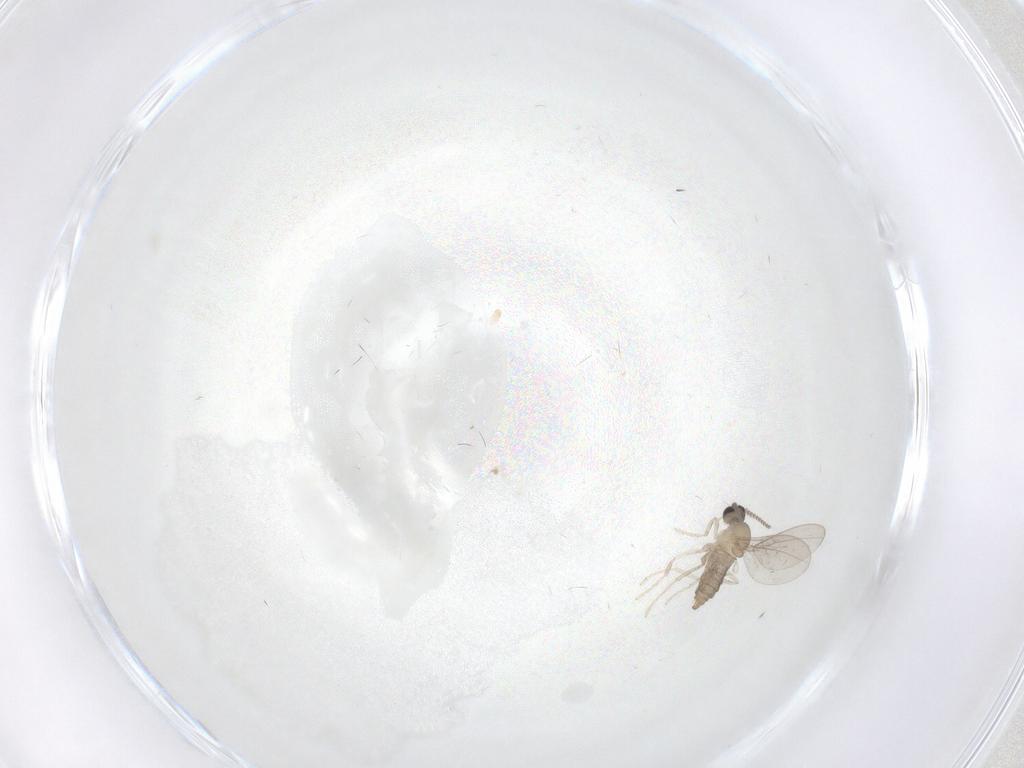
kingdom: Animalia
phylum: Arthropoda
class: Insecta
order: Diptera
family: Cecidomyiidae
